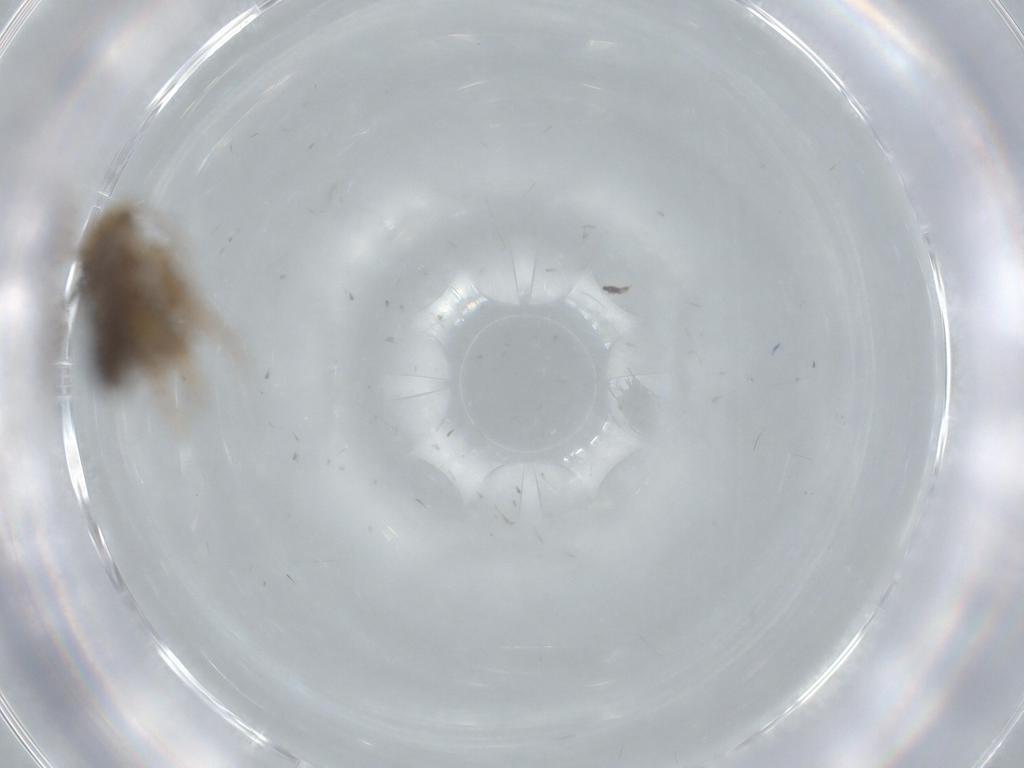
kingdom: Animalia
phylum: Arthropoda
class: Insecta
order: Lepidoptera
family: Nepticulidae
